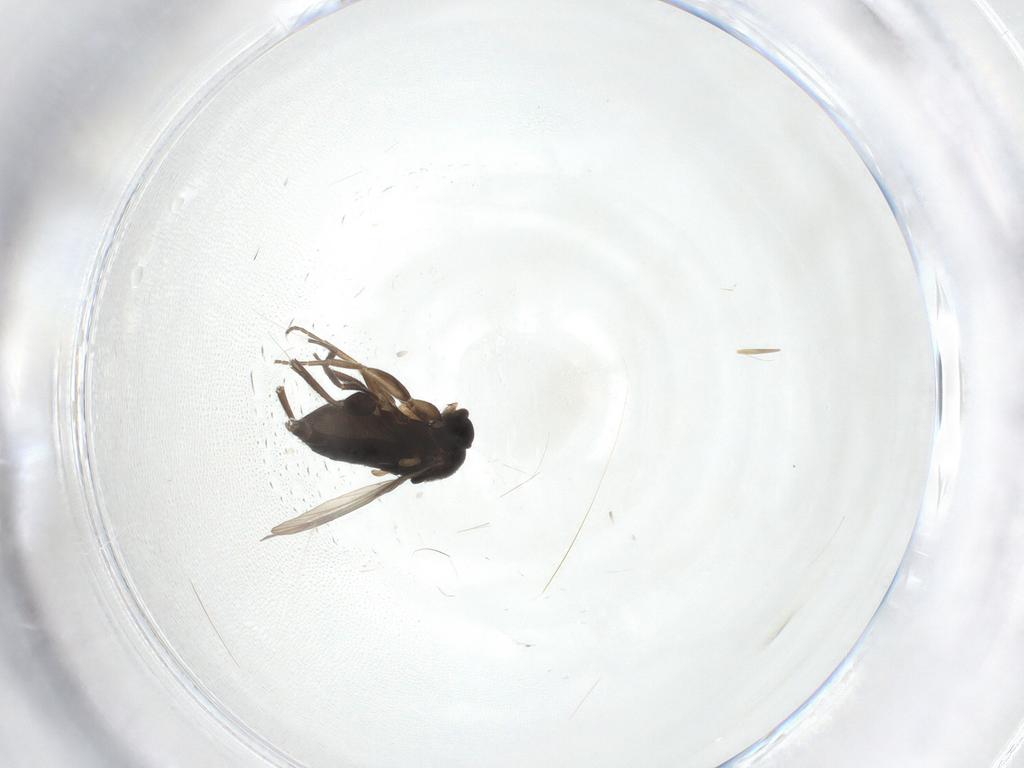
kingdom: Animalia
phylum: Arthropoda
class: Insecta
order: Diptera
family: Phoridae
